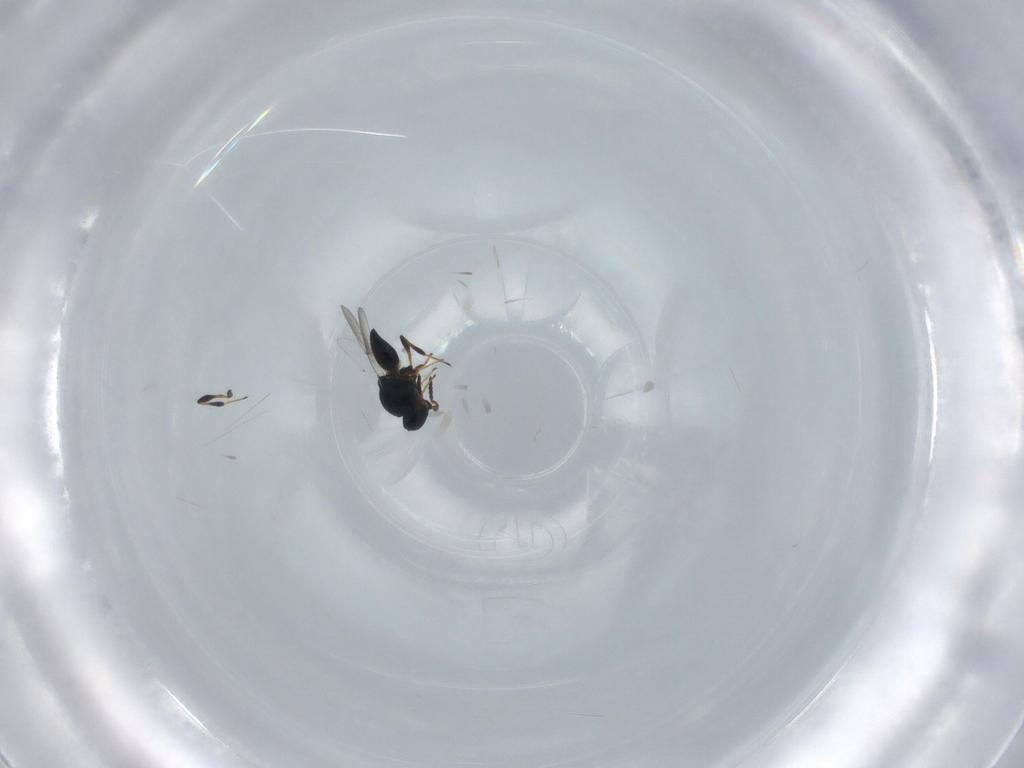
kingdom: Animalia
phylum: Arthropoda
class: Insecta
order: Hymenoptera
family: Platygastridae
